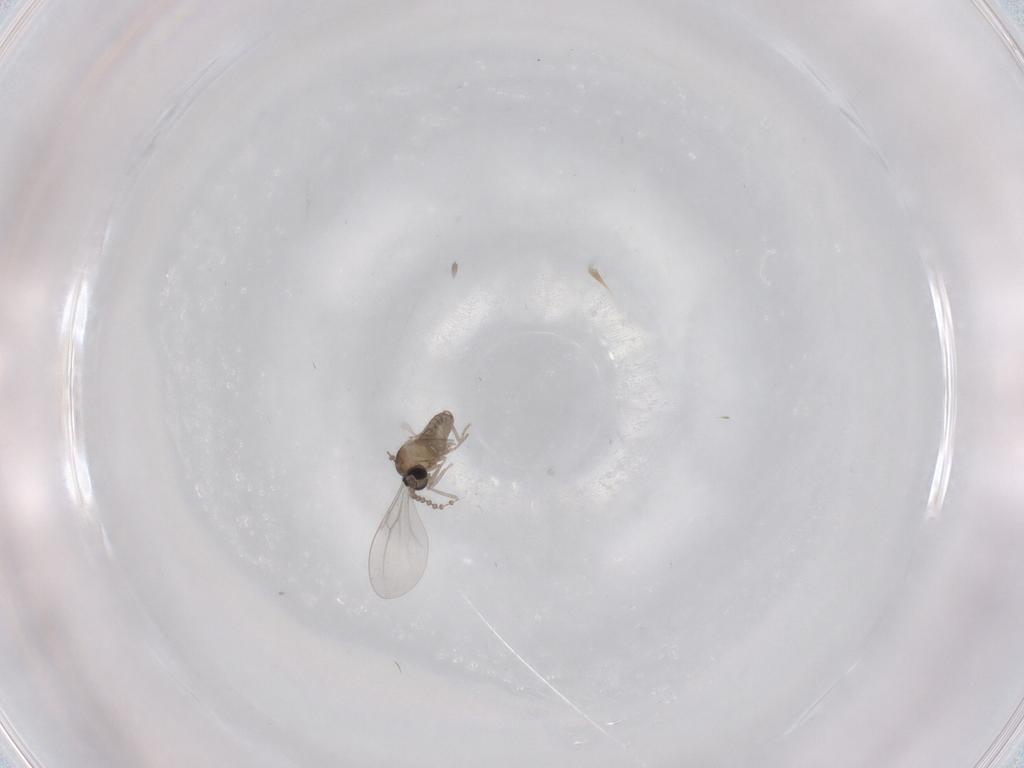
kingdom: Animalia
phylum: Arthropoda
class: Insecta
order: Diptera
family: Cecidomyiidae
